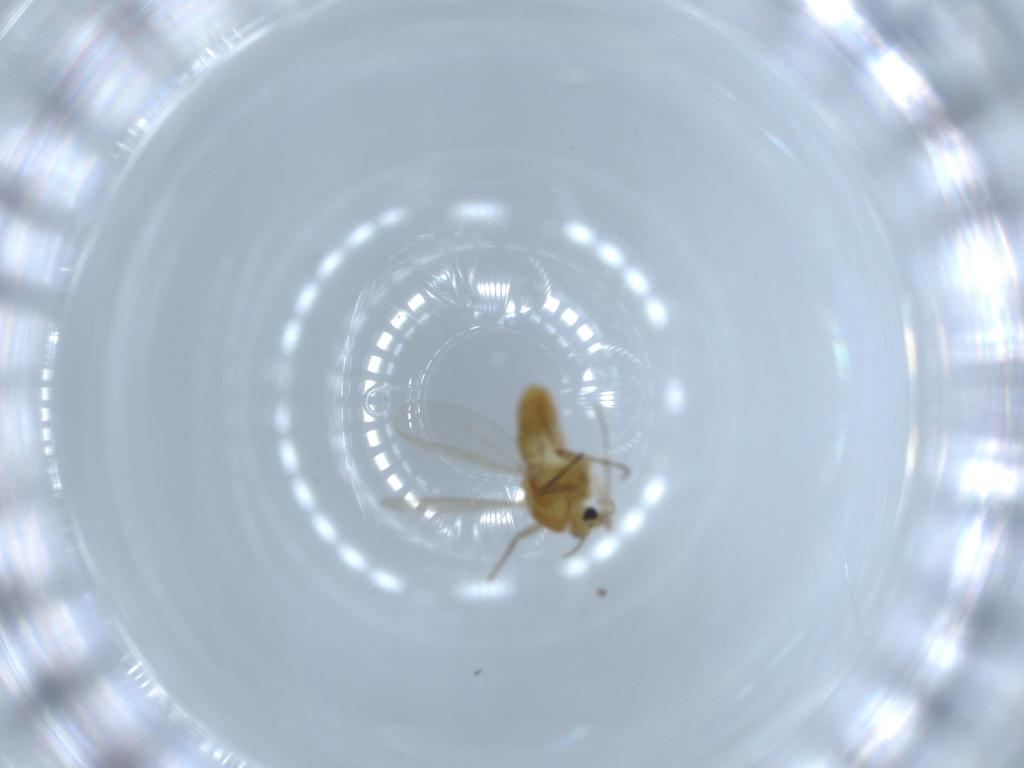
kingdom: Animalia
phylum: Arthropoda
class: Insecta
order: Diptera
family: Chironomidae
